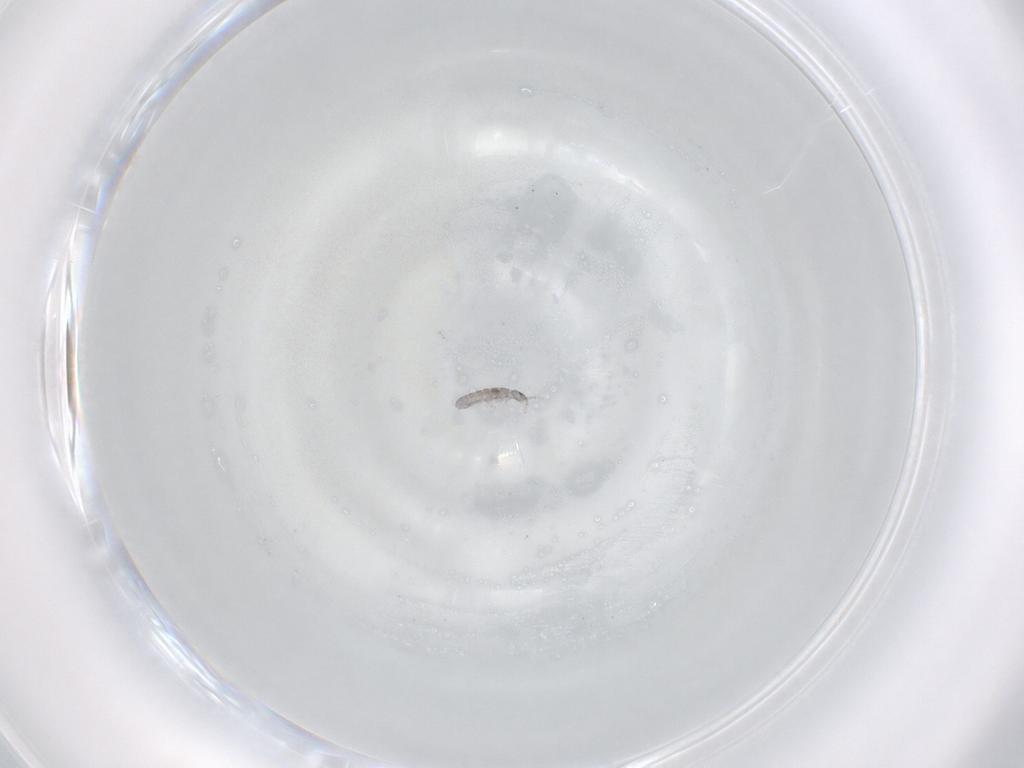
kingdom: Animalia
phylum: Arthropoda
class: Collembola
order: Entomobryomorpha
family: Isotomidae
